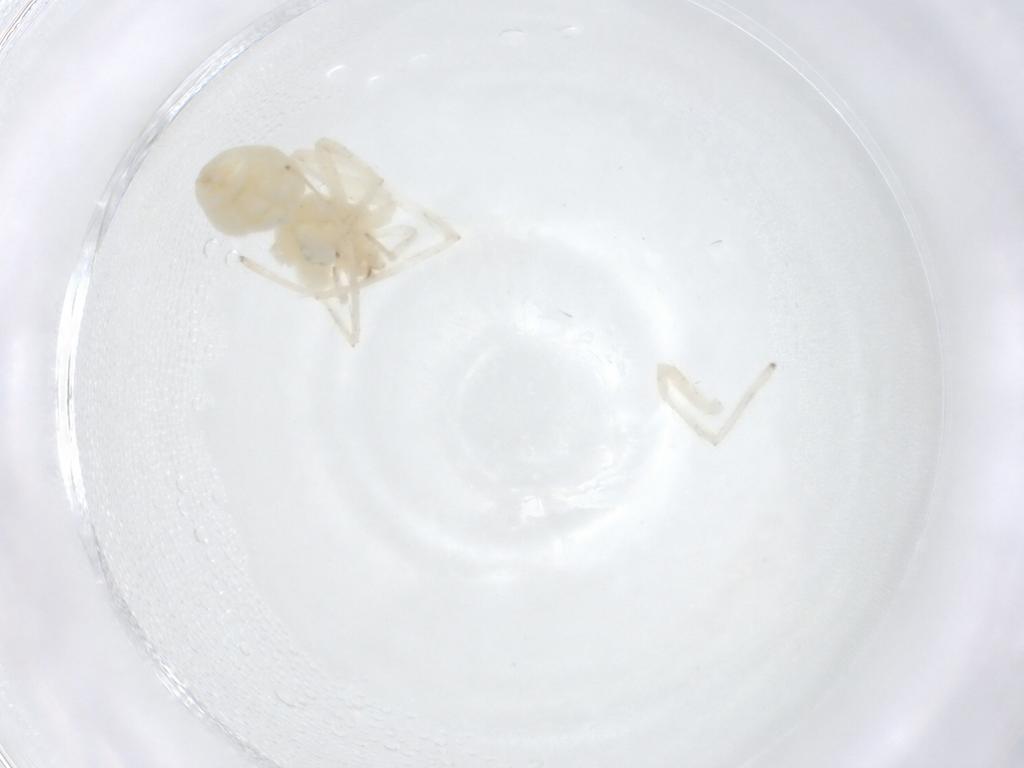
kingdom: Animalia
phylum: Arthropoda
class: Arachnida
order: Araneae
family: Anyphaenidae
